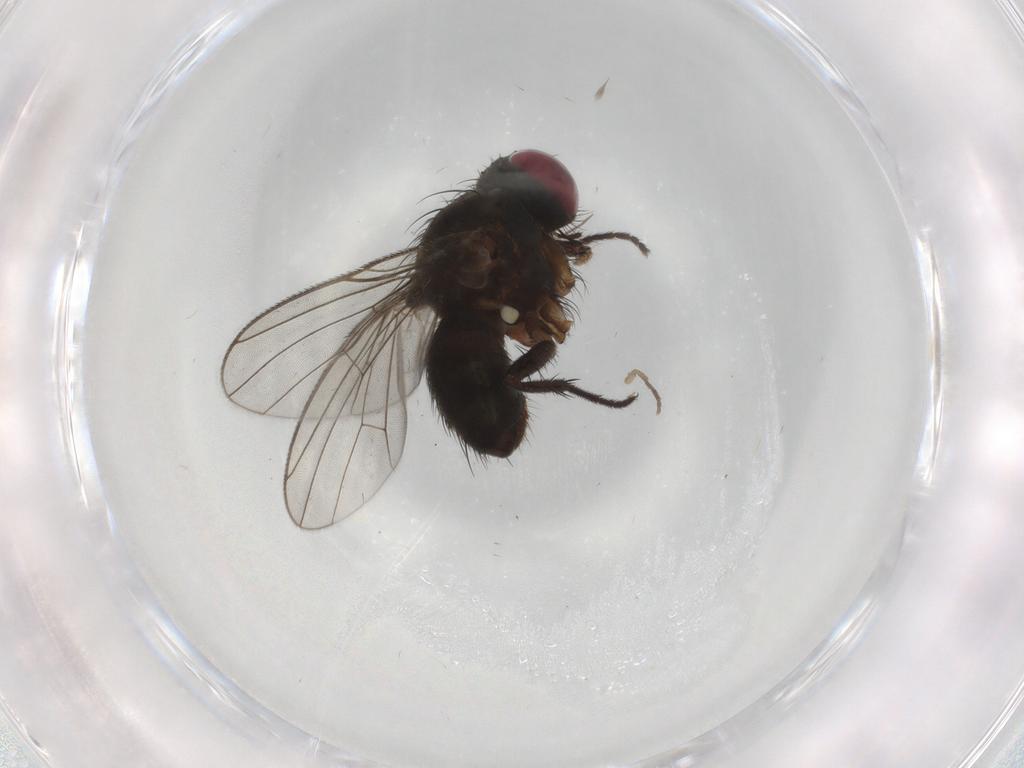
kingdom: Animalia
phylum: Arthropoda
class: Insecta
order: Diptera
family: Muscidae
